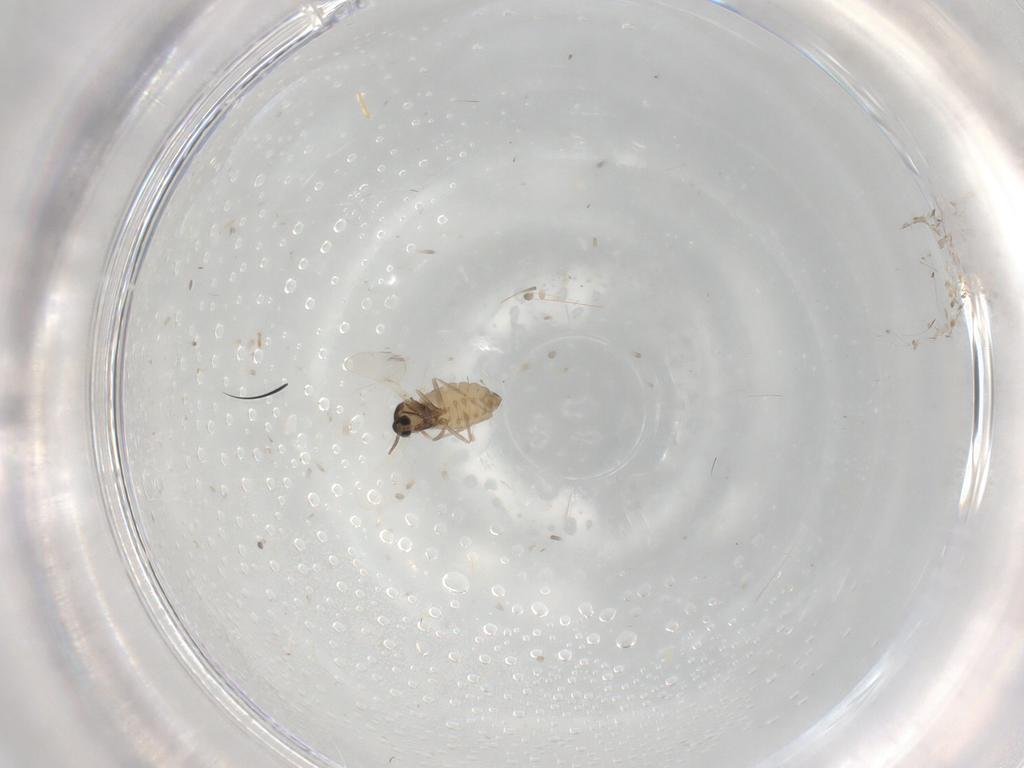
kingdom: Animalia
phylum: Arthropoda
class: Insecta
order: Diptera
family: Cecidomyiidae
